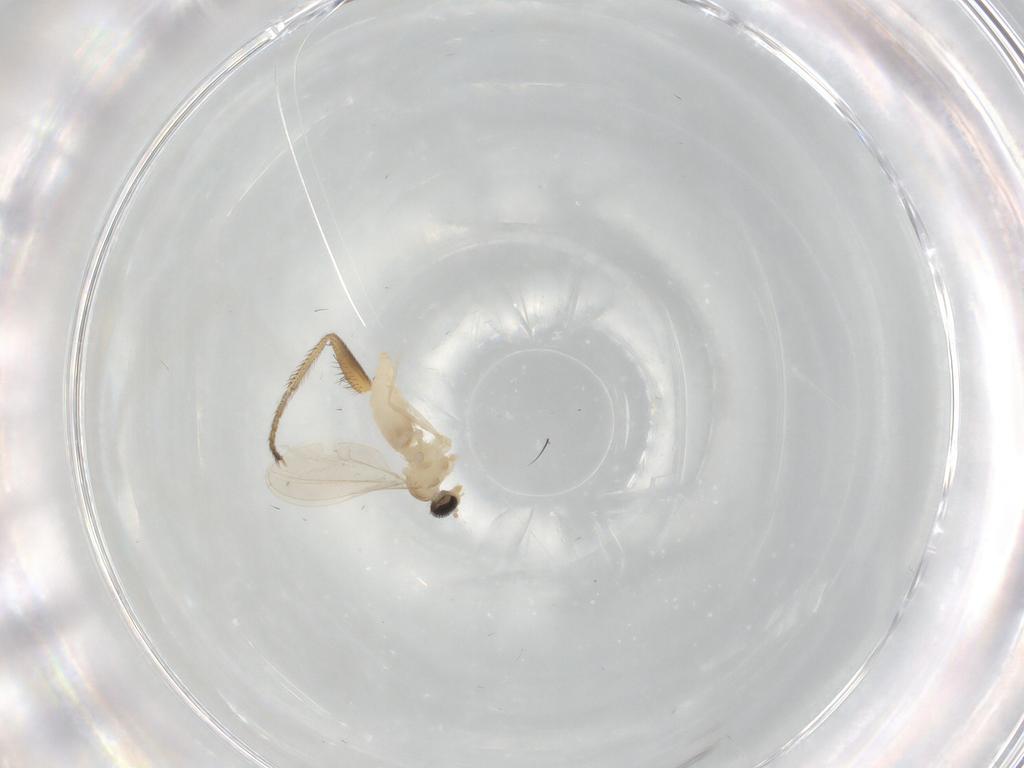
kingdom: Animalia
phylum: Arthropoda
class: Insecta
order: Diptera
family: Cecidomyiidae
